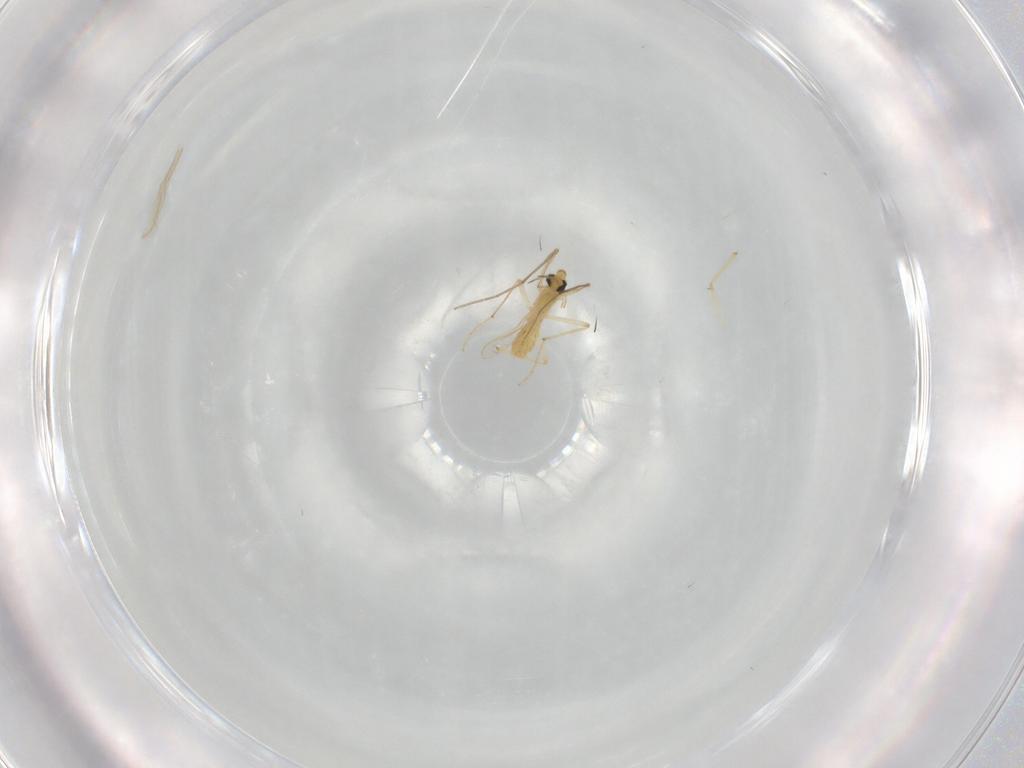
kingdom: Animalia
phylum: Arthropoda
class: Insecta
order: Diptera
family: Chironomidae
